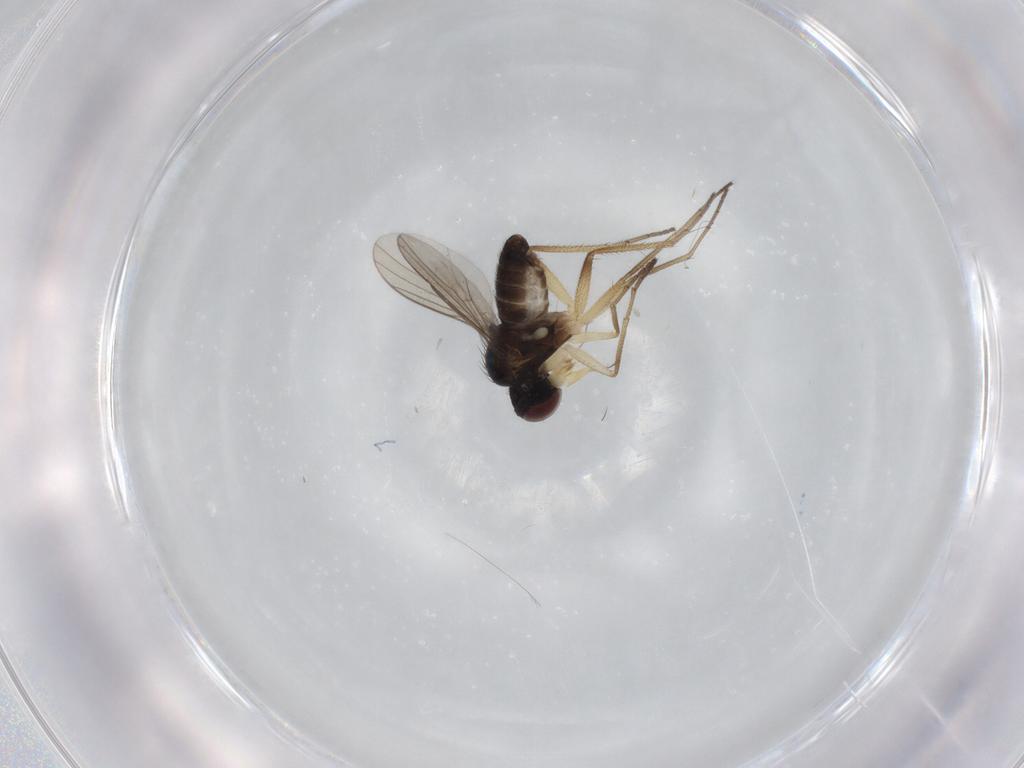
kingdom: Animalia
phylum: Arthropoda
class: Insecta
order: Diptera
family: Dolichopodidae
